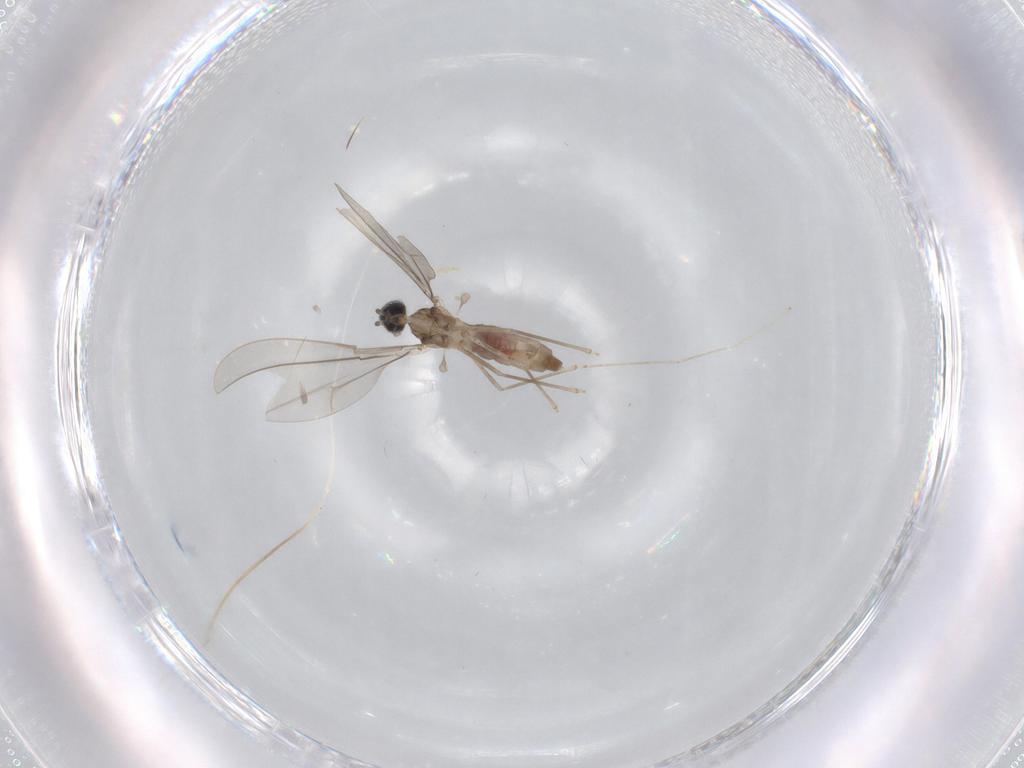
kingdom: Animalia
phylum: Arthropoda
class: Insecta
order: Diptera
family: Cecidomyiidae
